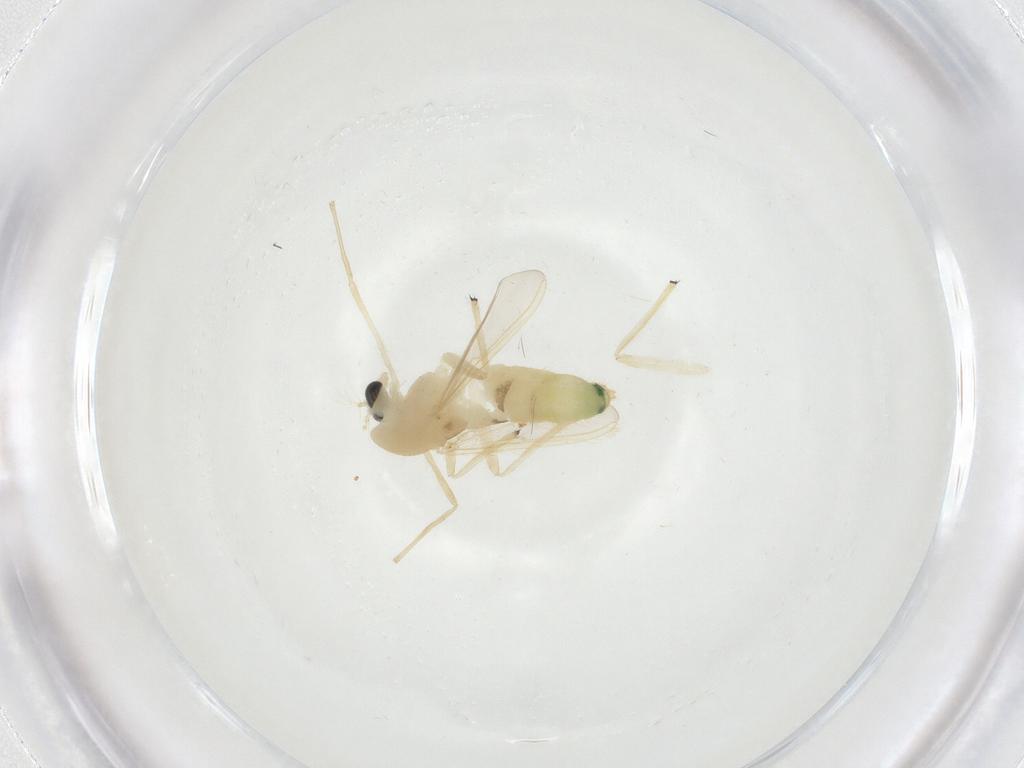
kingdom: Animalia
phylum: Arthropoda
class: Insecta
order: Diptera
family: Chironomidae
